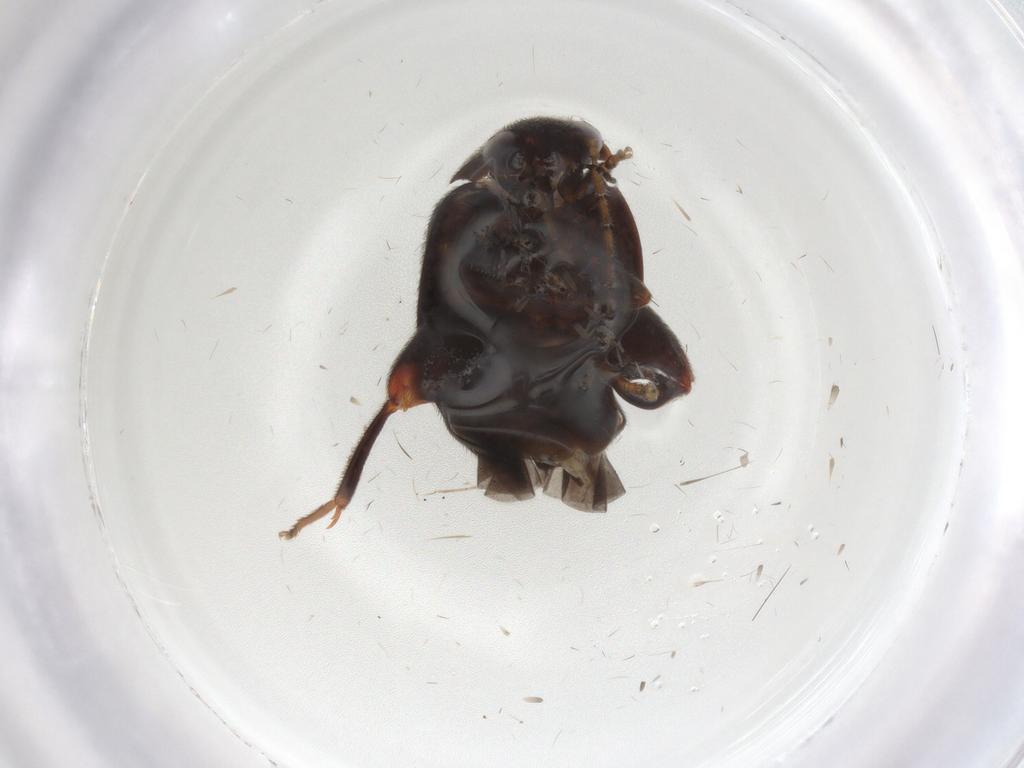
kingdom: Animalia
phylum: Arthropoda
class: Insecta
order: Coleoptera
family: Scirtidae
